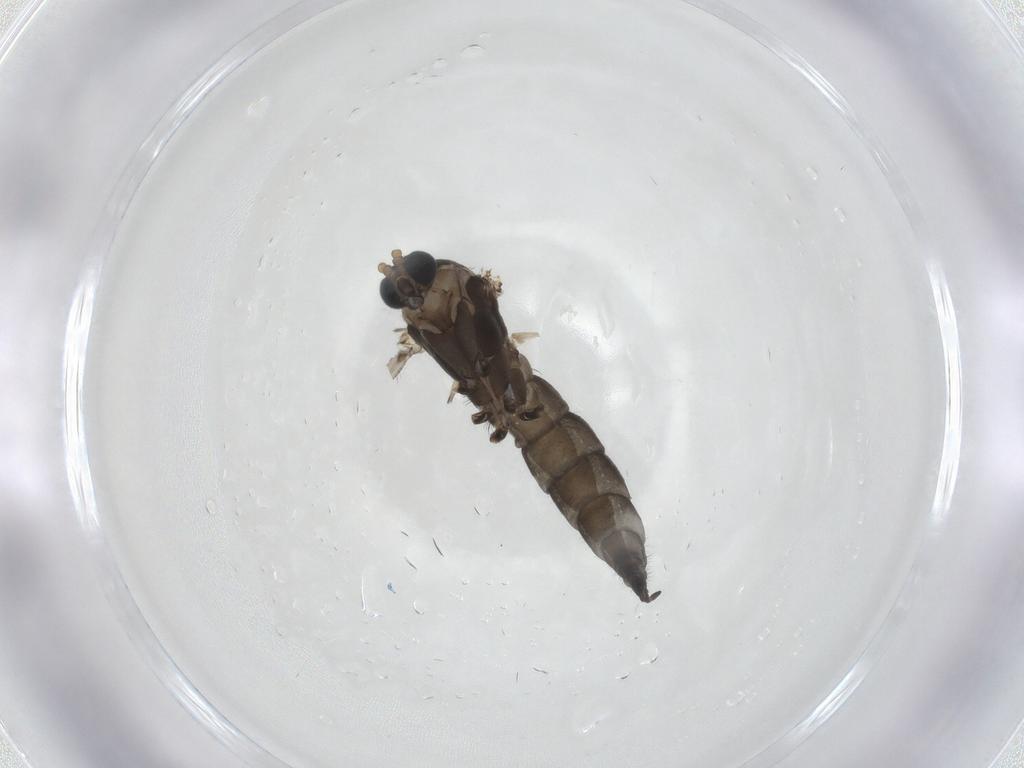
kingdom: Animalia
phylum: Arthropoda
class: Insecta
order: Diptera
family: Sciaridae
